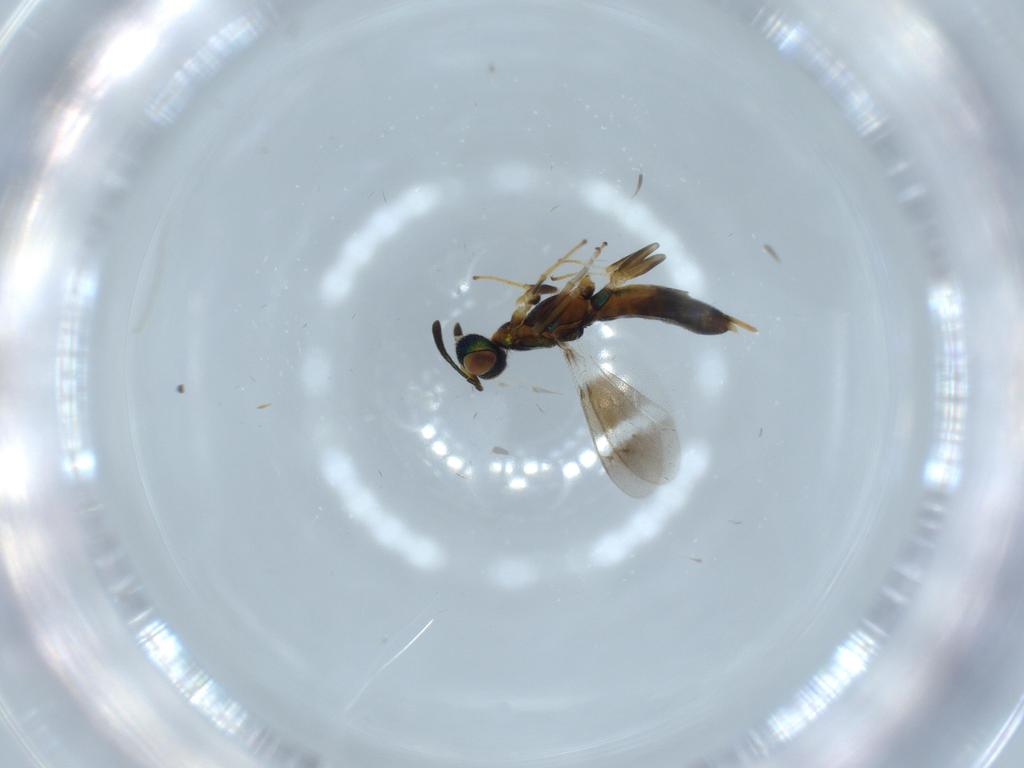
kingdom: Animalia
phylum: Arthropoda
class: Insecta
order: Hymenoptera
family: Eupelmidae
